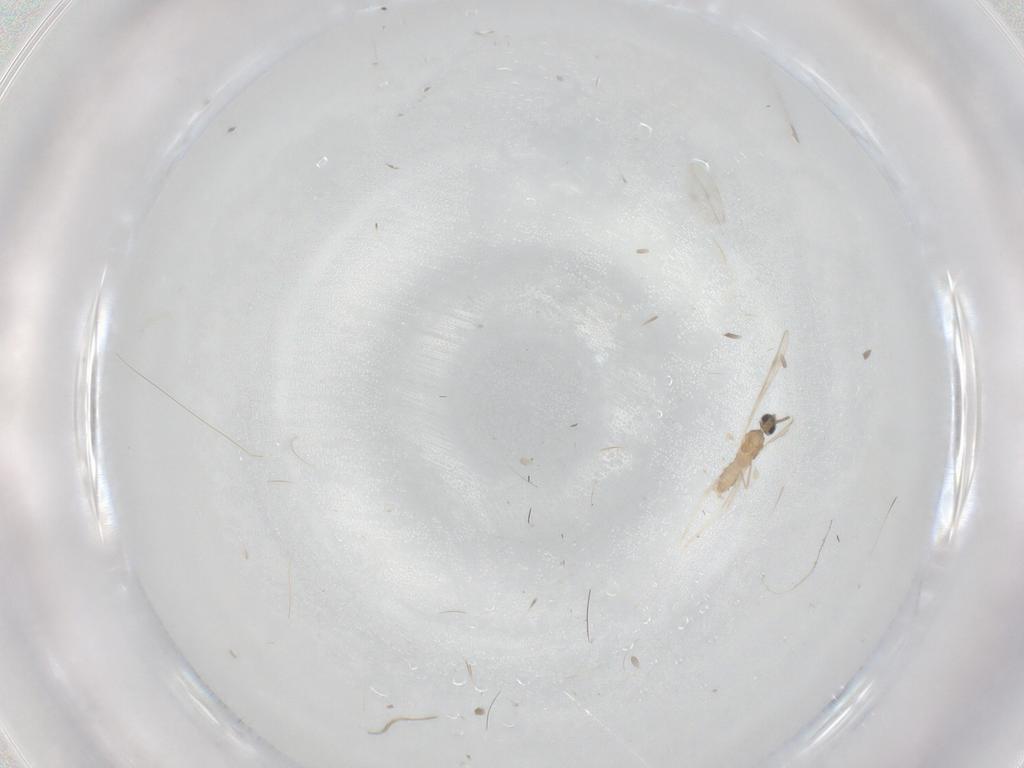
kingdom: Animalia
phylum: Arthropoda
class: Insecta
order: Diptera
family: Cecidomyiidae
